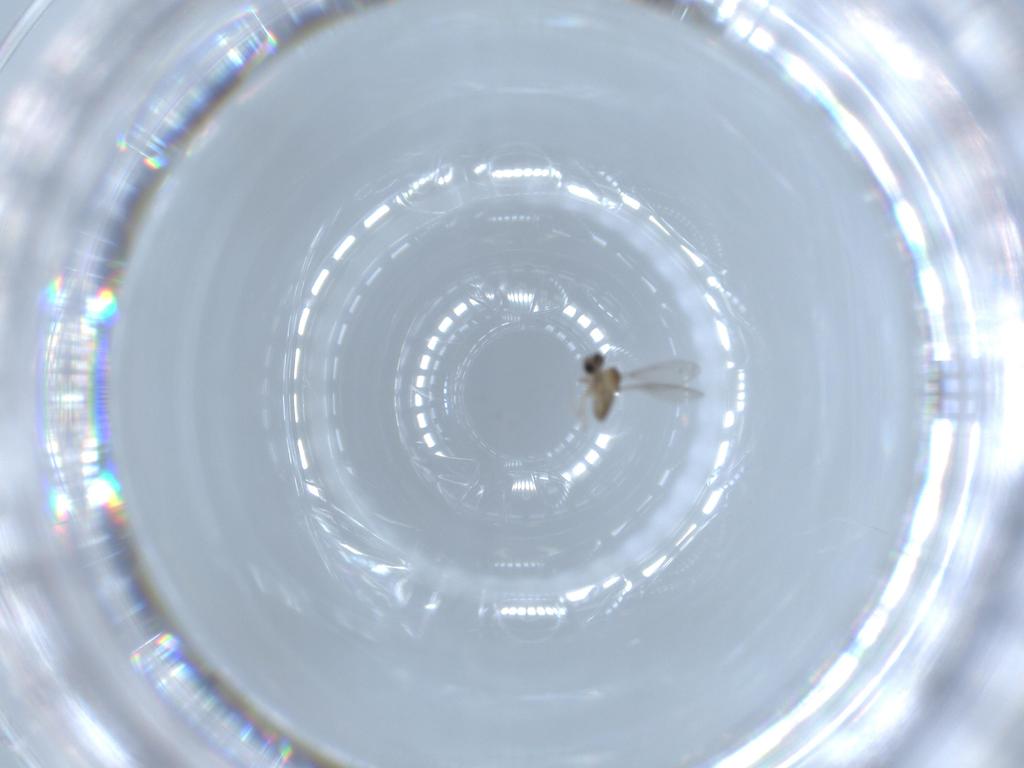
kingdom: Animalia
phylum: Arthropoda
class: Insecta
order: Diptera
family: Cecidomyiidae
